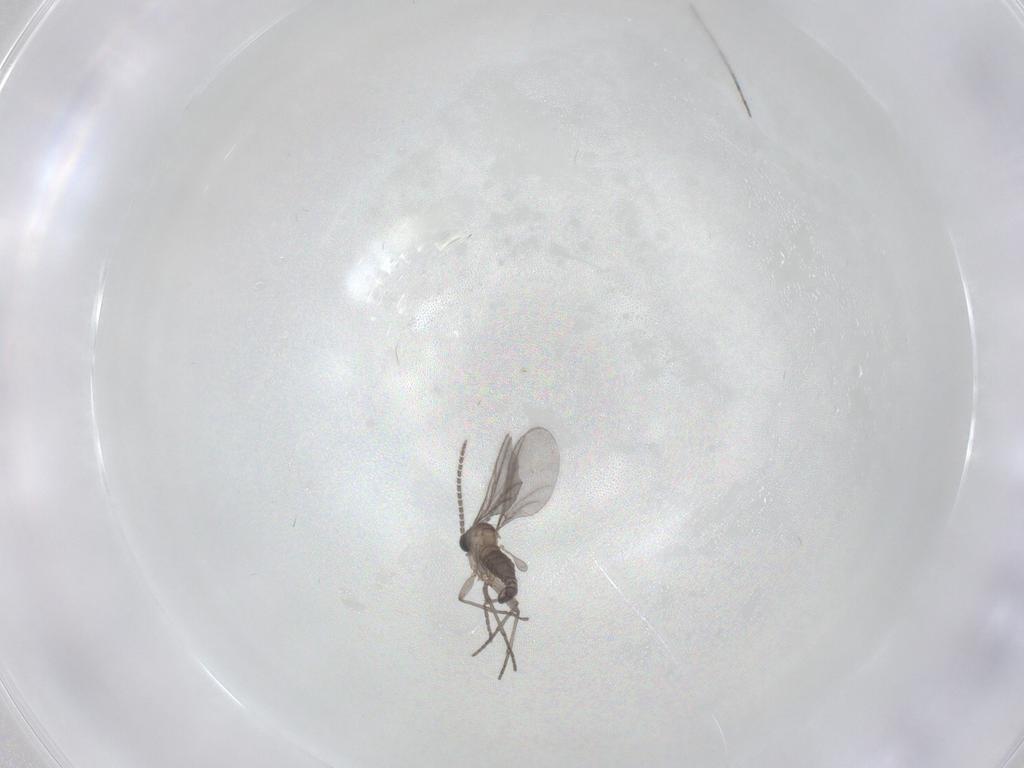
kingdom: Animalia
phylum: Arthropoda
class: Insecta
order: Diptera
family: Sciaridae
